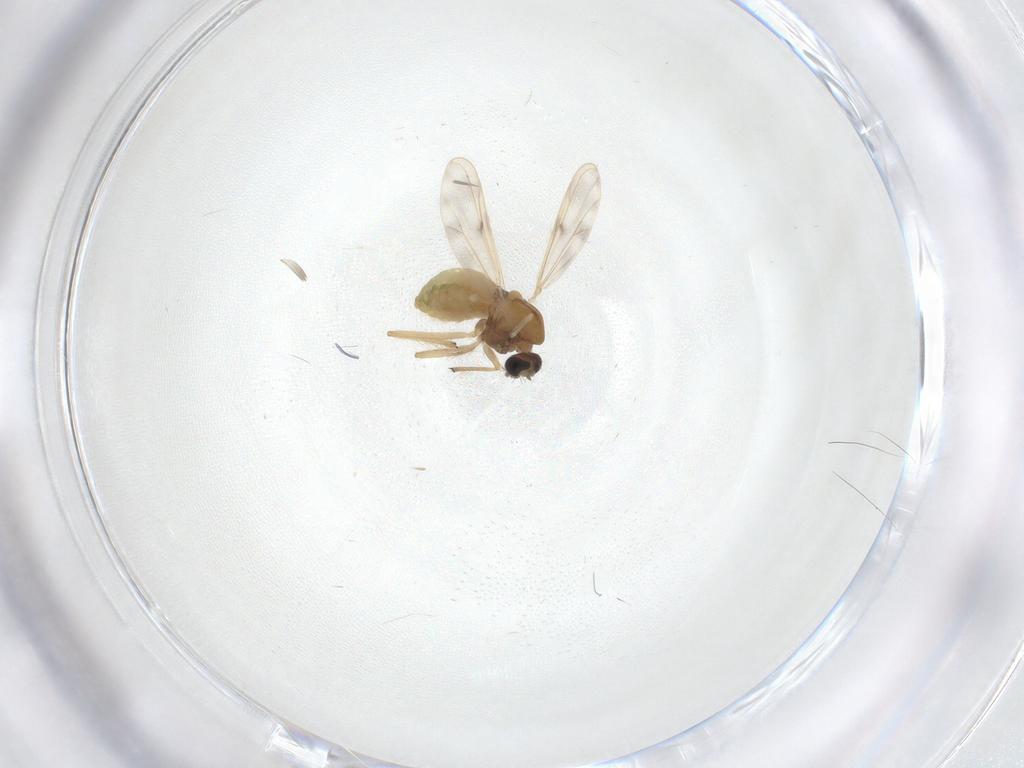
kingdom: Animalia
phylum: Arthropoda
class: Insecta
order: Diptera
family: Chironomidae
